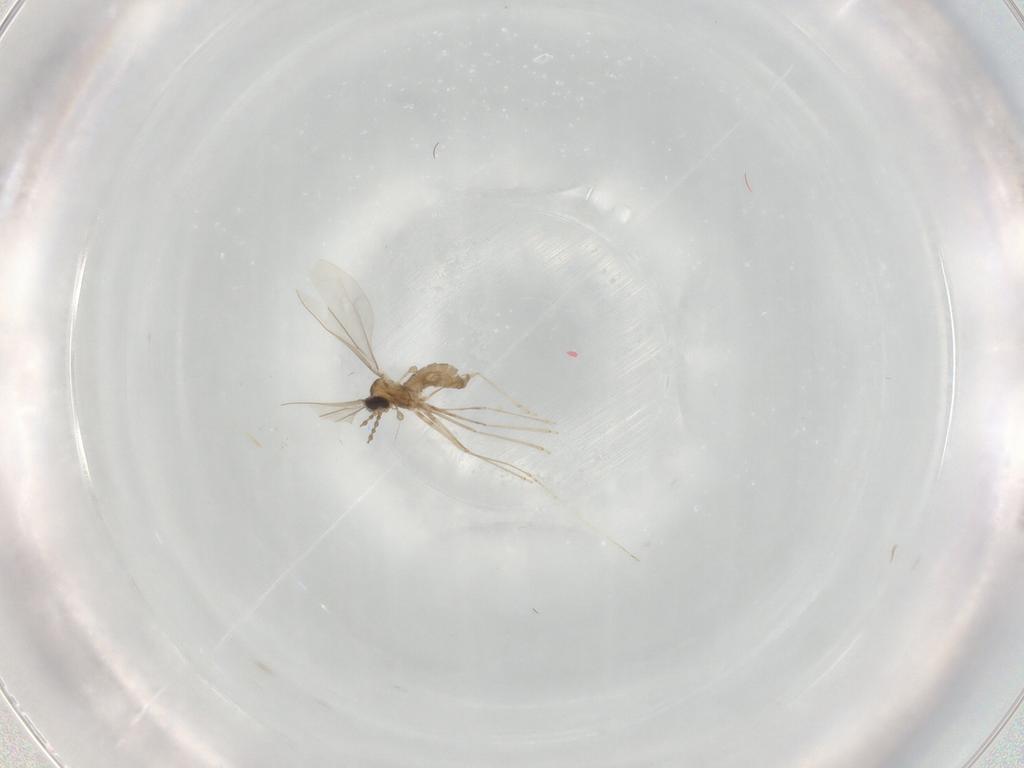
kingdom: Animalia
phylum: Arthropoda
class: Insecta
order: Diptera
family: Cecidomyiidae
